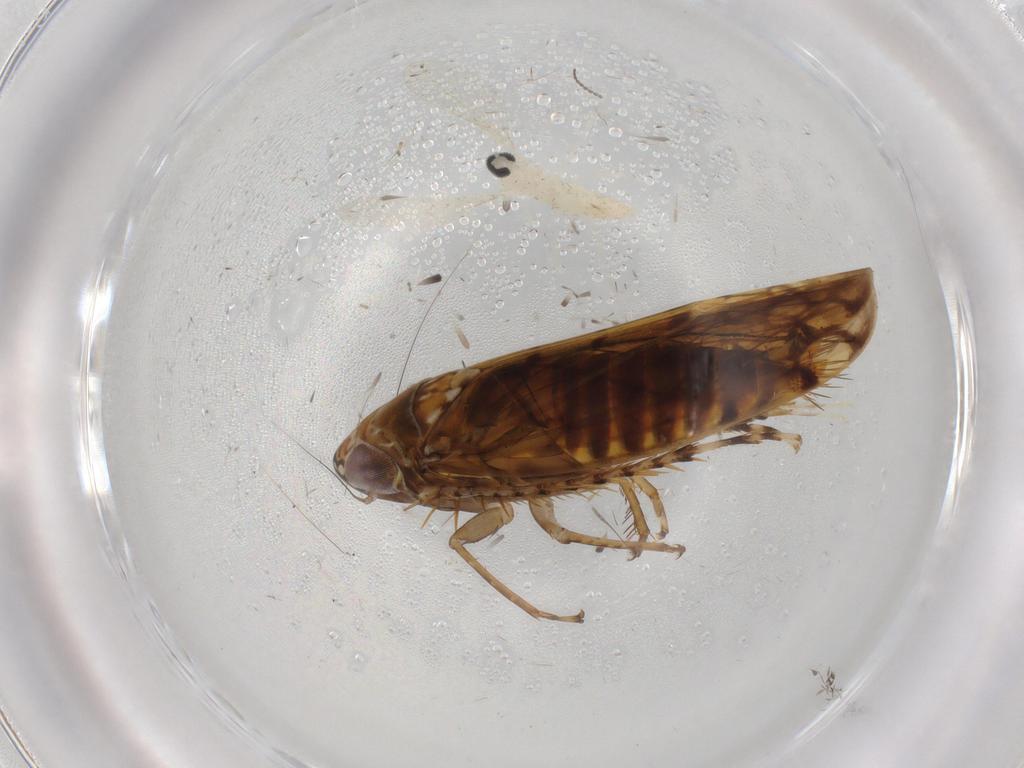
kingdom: Animalia
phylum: Arthropoda
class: Insecta
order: Hemiptera
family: Cicadellidae
